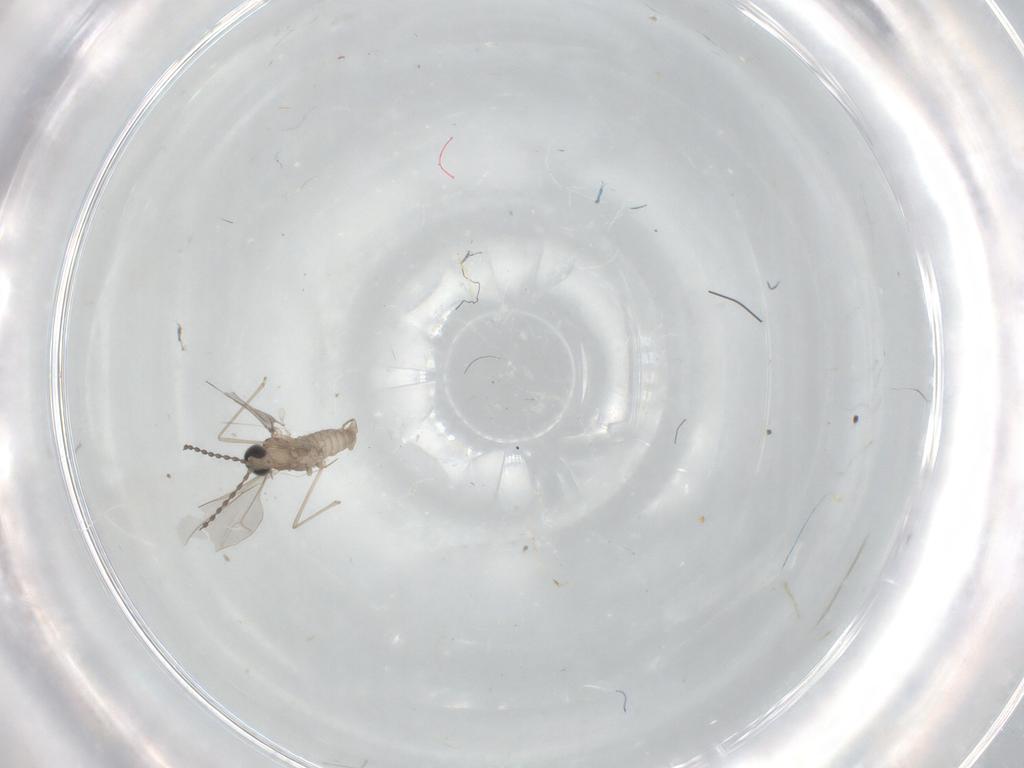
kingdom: Animalia
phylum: Arthropoda
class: Insecta
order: Diptera
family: Cecidomyiidae
